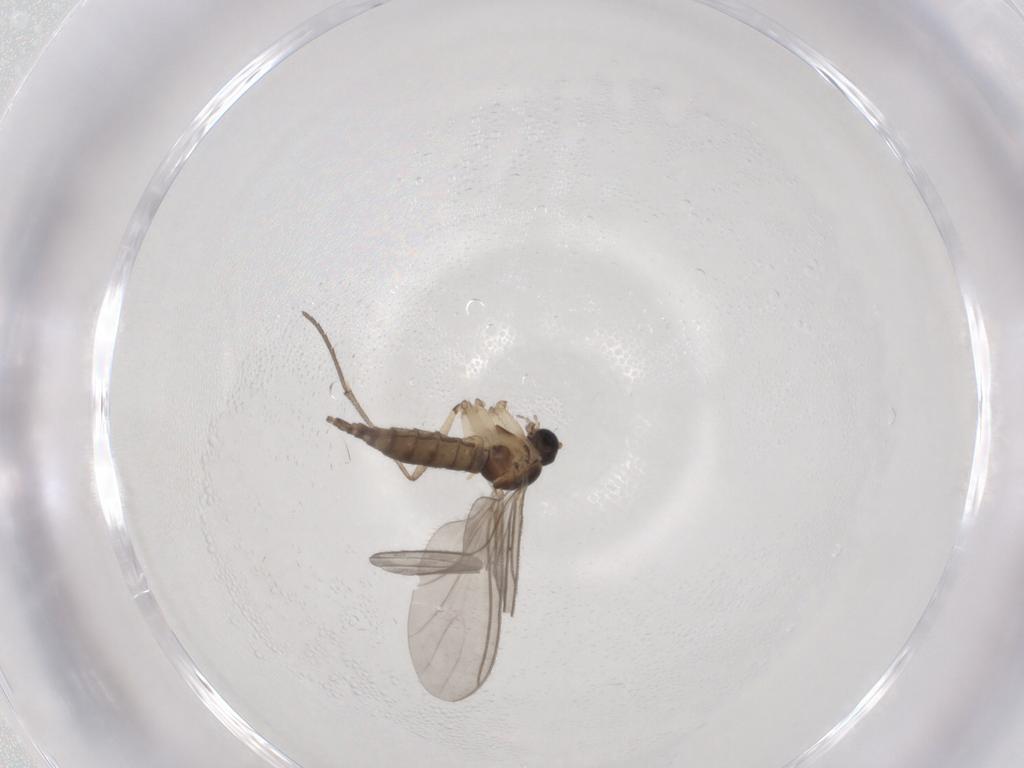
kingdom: Animalia
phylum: Arthropoda
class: Insecta
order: Diptera
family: Sciaridae
